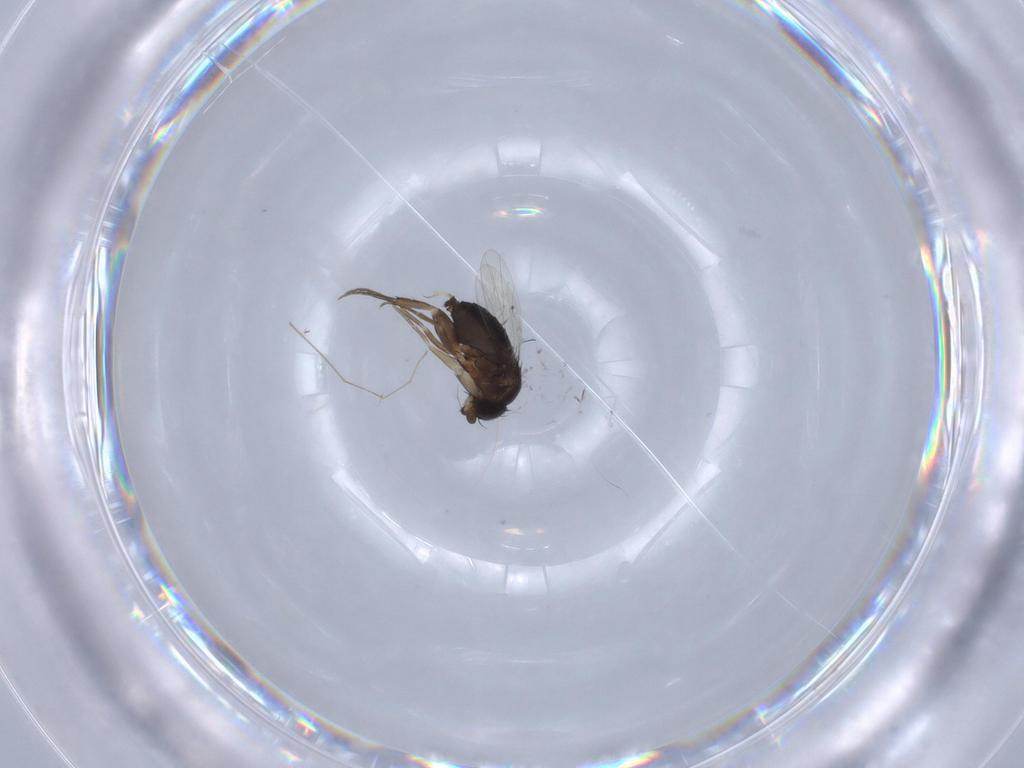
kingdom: Animalia
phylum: Arthropoda
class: Insecta
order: Diptera
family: Phoridae
